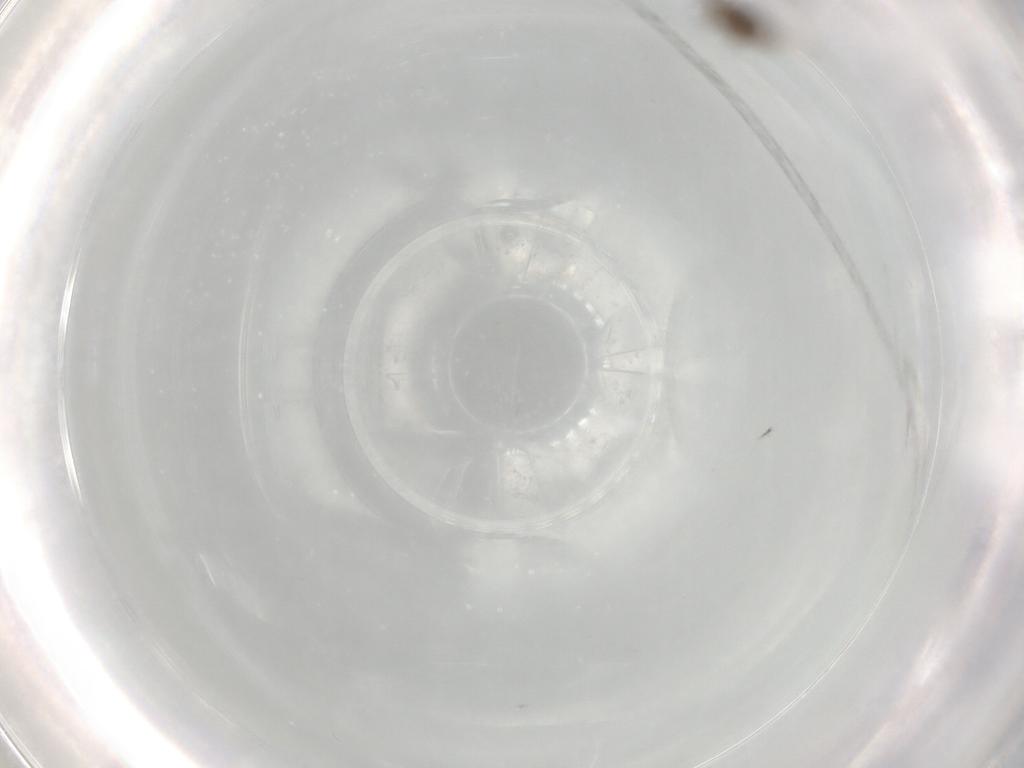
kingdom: Animalia
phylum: Arthropoda
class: Insecta
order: Diptera
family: Cecidomyiidae
